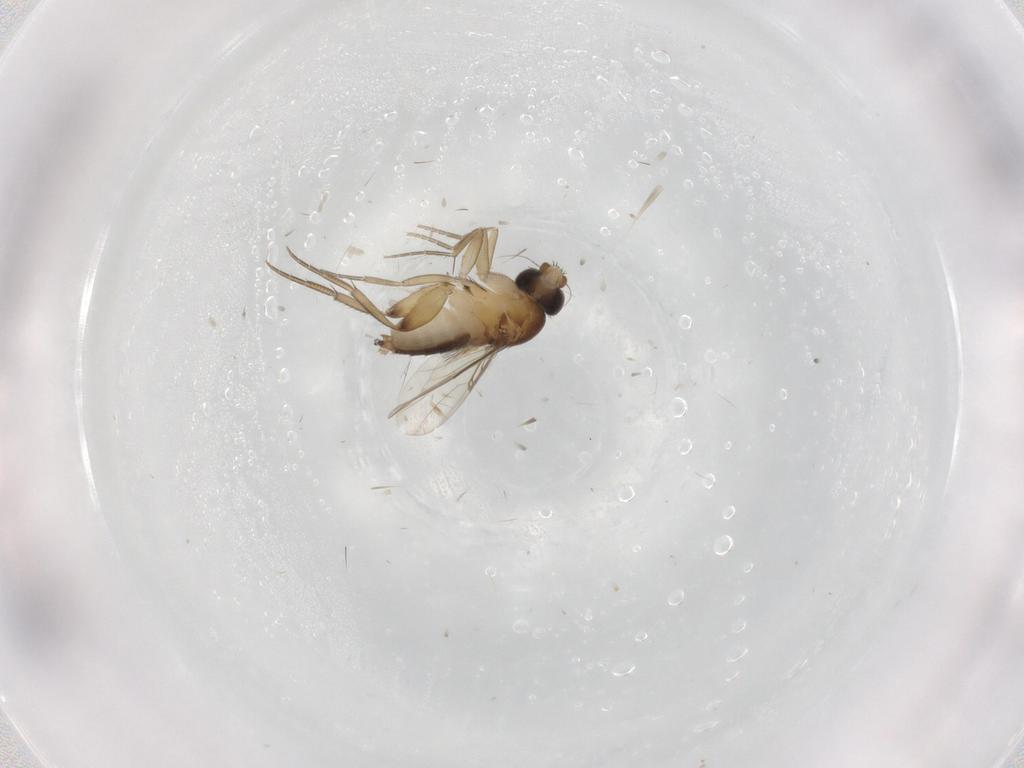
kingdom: Animalia
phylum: Arthropoda
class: Insecta
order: Diptera
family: Phoridae
